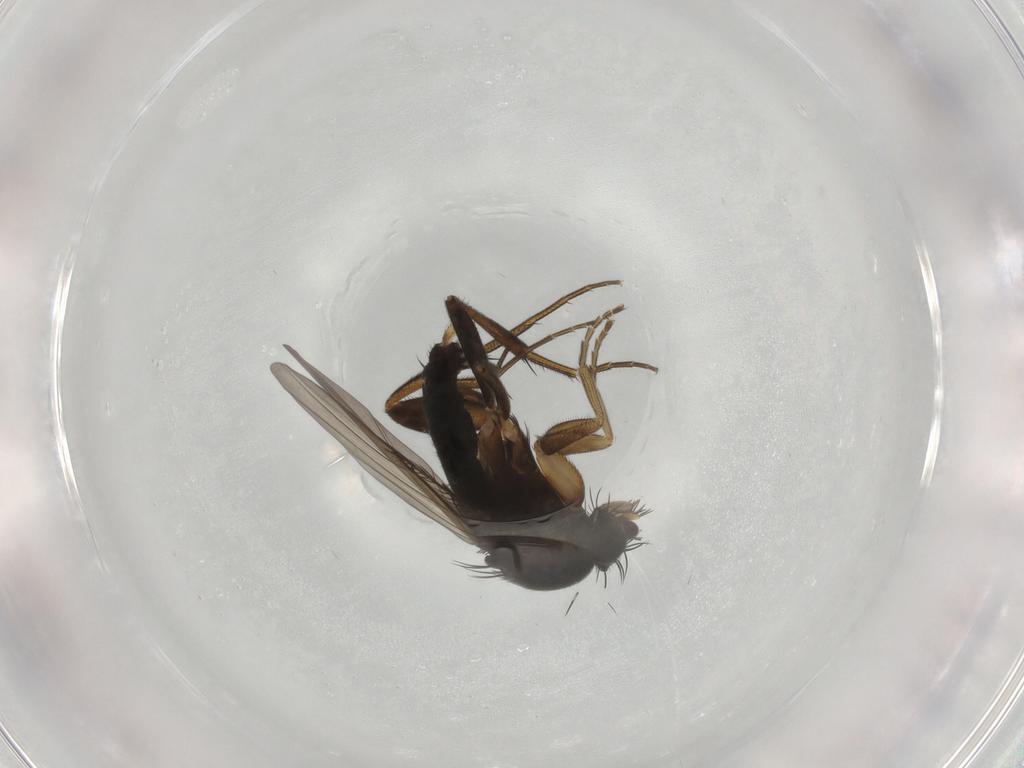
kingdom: Animalia
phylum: Arthropoda
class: Insecta
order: Diptera
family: Phoridae
